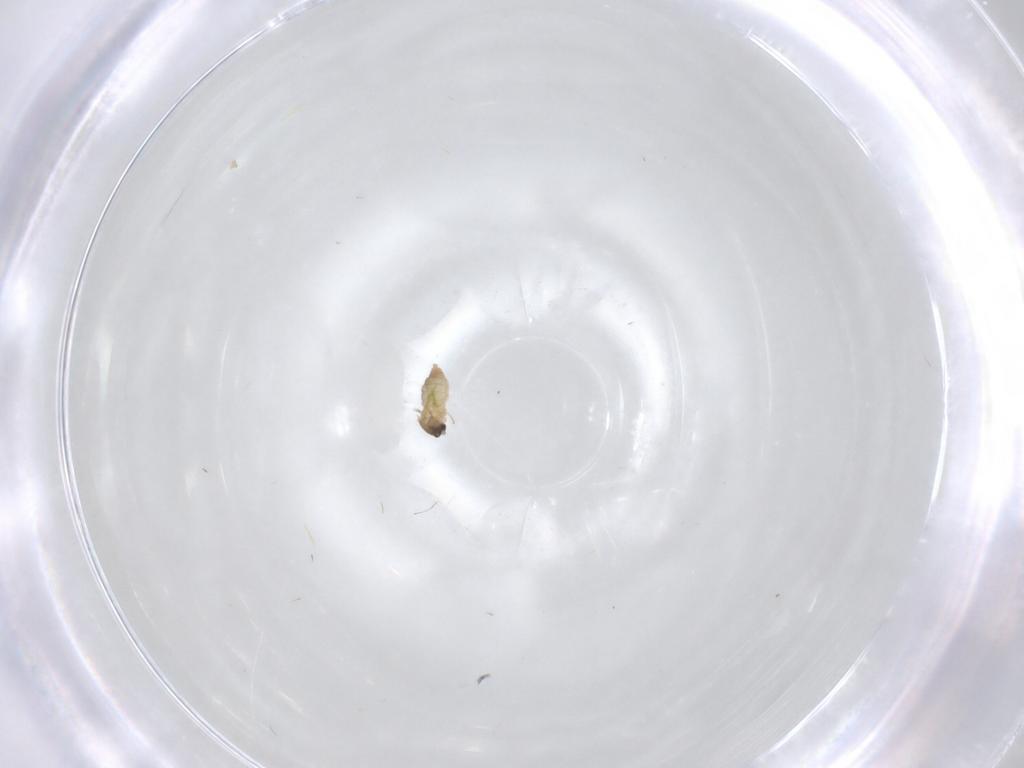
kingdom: Animalia
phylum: Arthropoda
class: Insecta
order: Diptera
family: Cecidomyiidae
